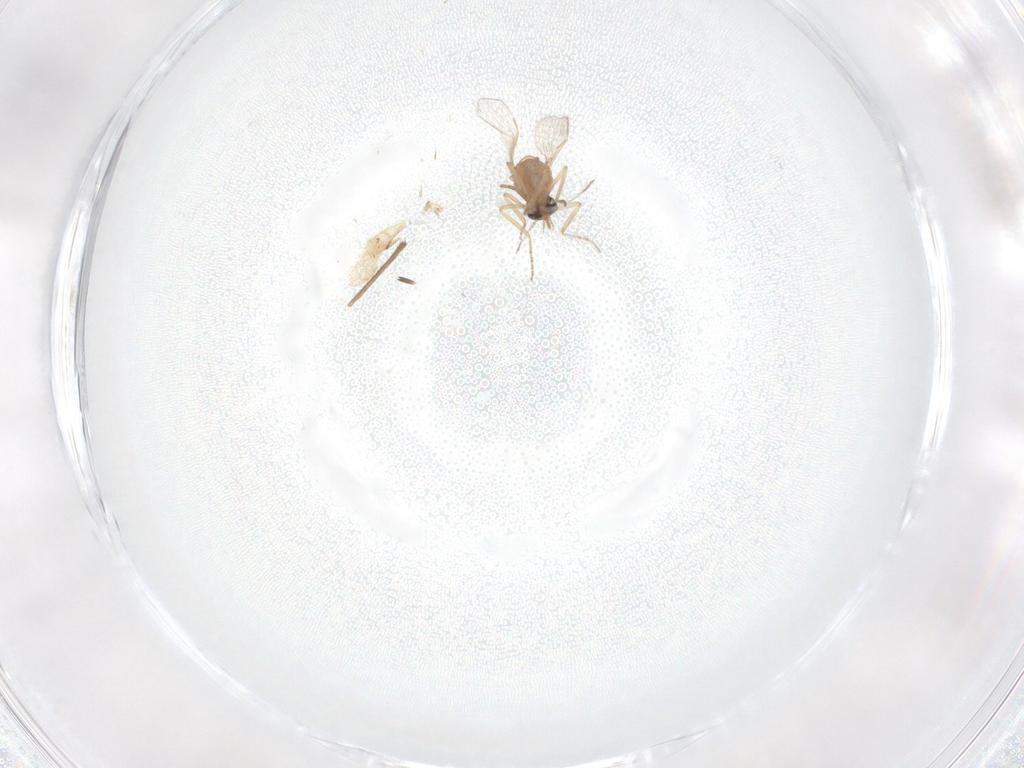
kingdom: Animalia
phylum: Arthropoda
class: Insecta
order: Diptera
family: Ceratopogonidae
